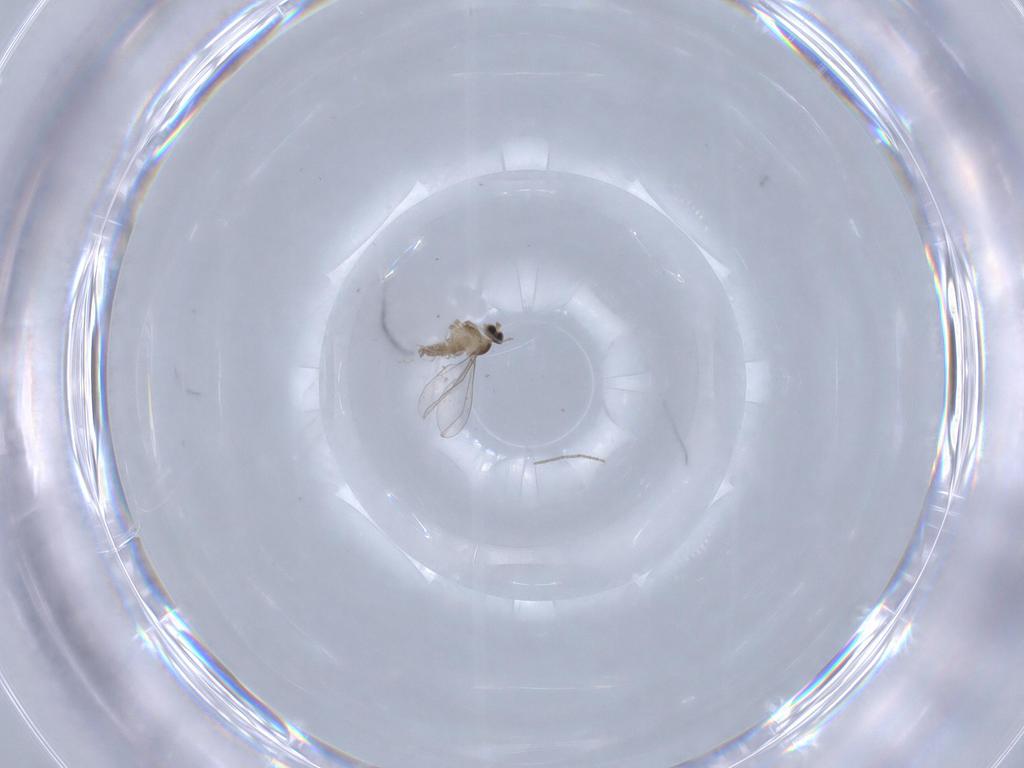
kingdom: Animalia
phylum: Arthropoda
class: Insecta
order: Diptera
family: Cecidomyiidae
